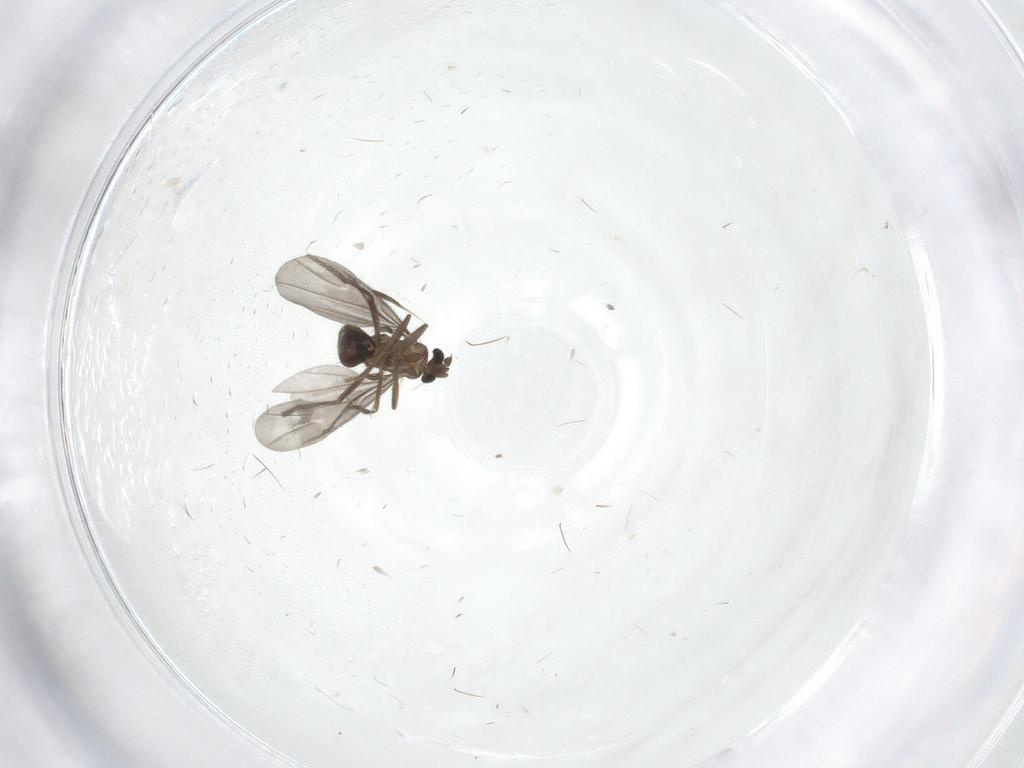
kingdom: Animalia
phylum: Arthropoda
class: Insecta
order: Diptera
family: Phoridae
